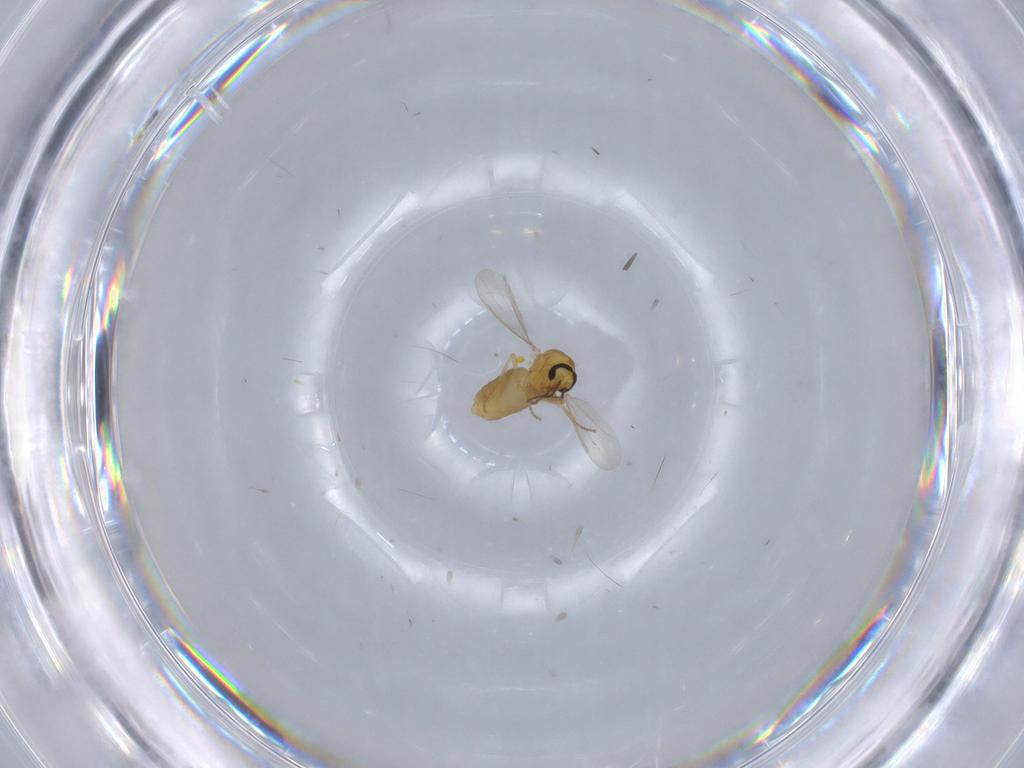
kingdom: Animalia
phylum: Arthropoda
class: Insecta
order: Diptera
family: Ceratopogonidae
